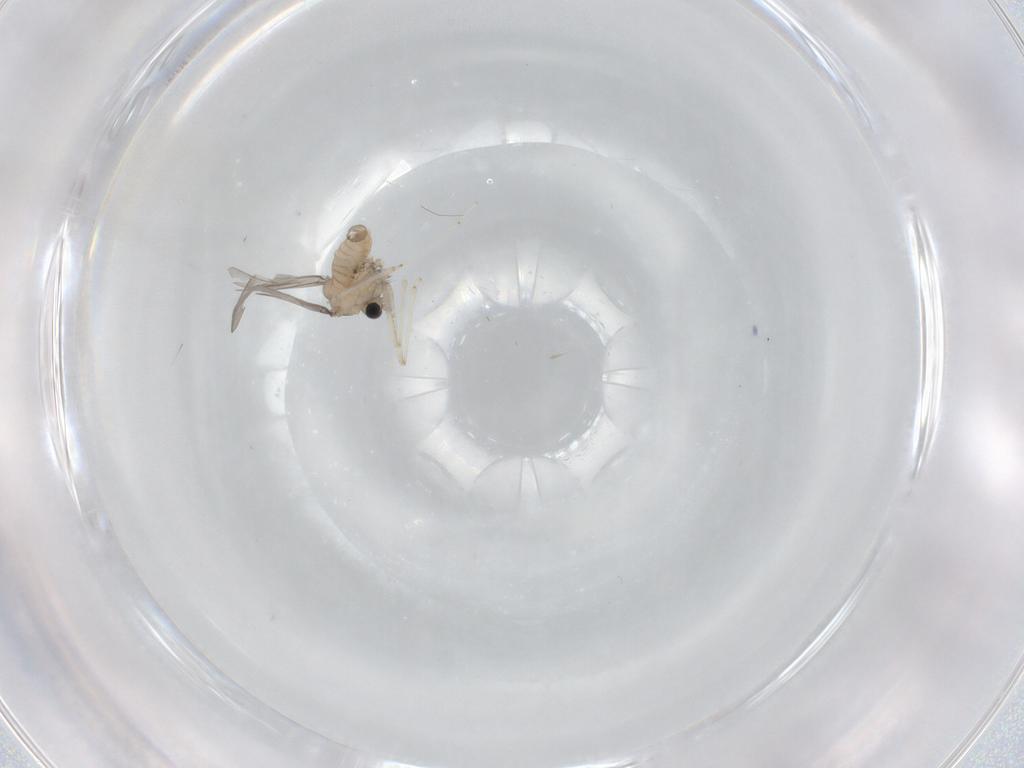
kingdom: Animalia
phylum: Arthropoda
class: Insecta
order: Diptera
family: Cecidomyiidae
